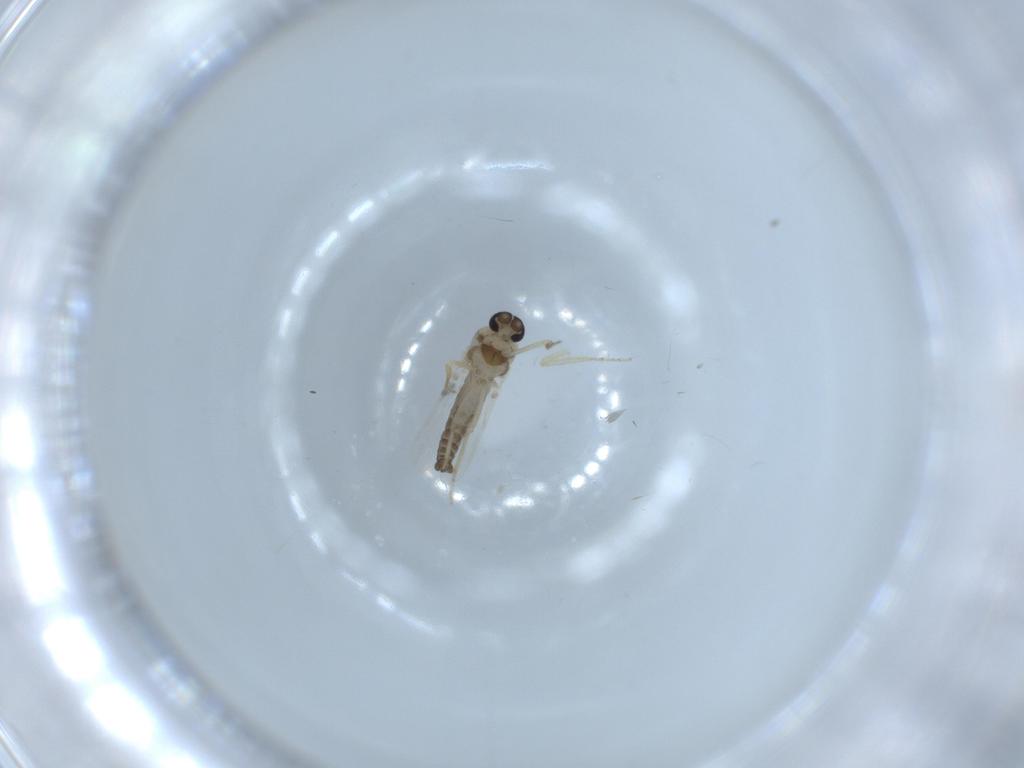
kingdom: Animalia
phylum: Arthropoda
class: Insecta
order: Diptera
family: Ceratopogonidae
